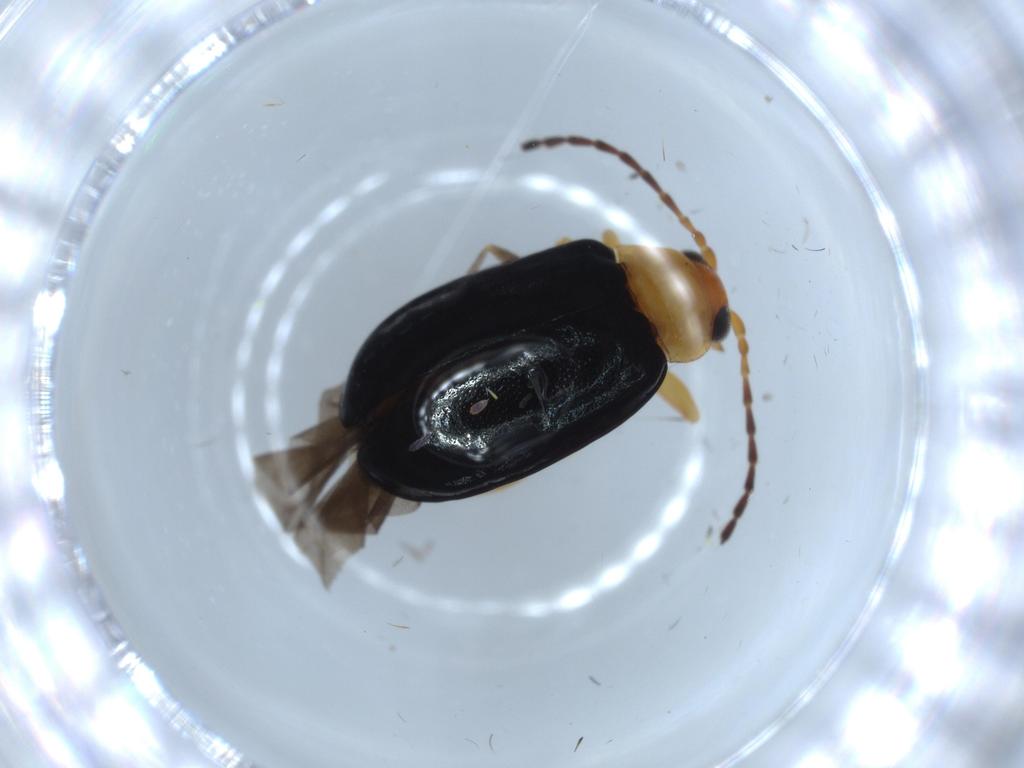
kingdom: Animalia
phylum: Arthropoda
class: Insecta
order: Coleoptera
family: Chrysomelidae
